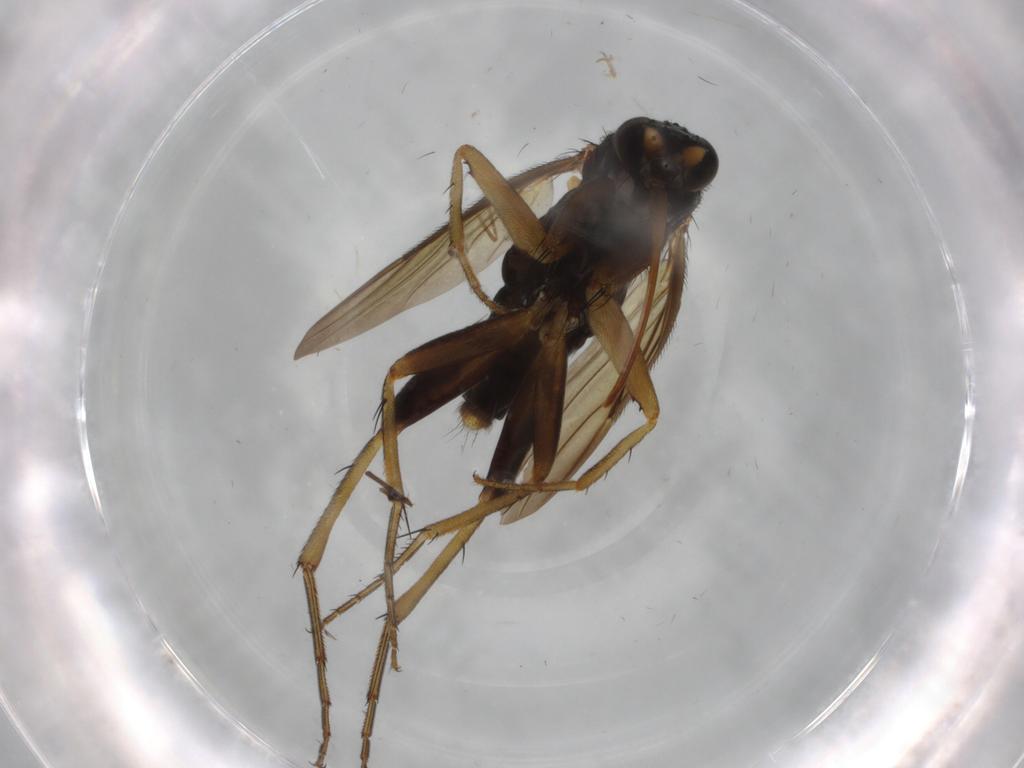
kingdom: Animalia
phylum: Arthropoda
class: Insecta
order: Diptera
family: Phoridae
